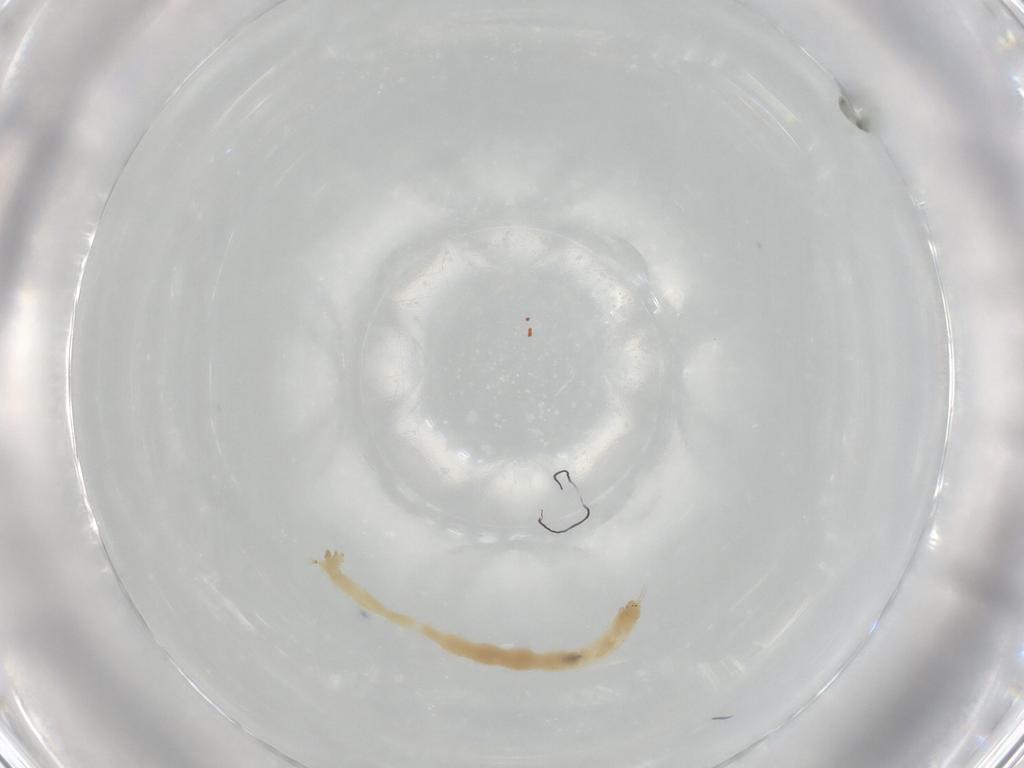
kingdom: Animalia
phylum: Arthropoda
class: Insecta
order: Diptera
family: Chironomidae
